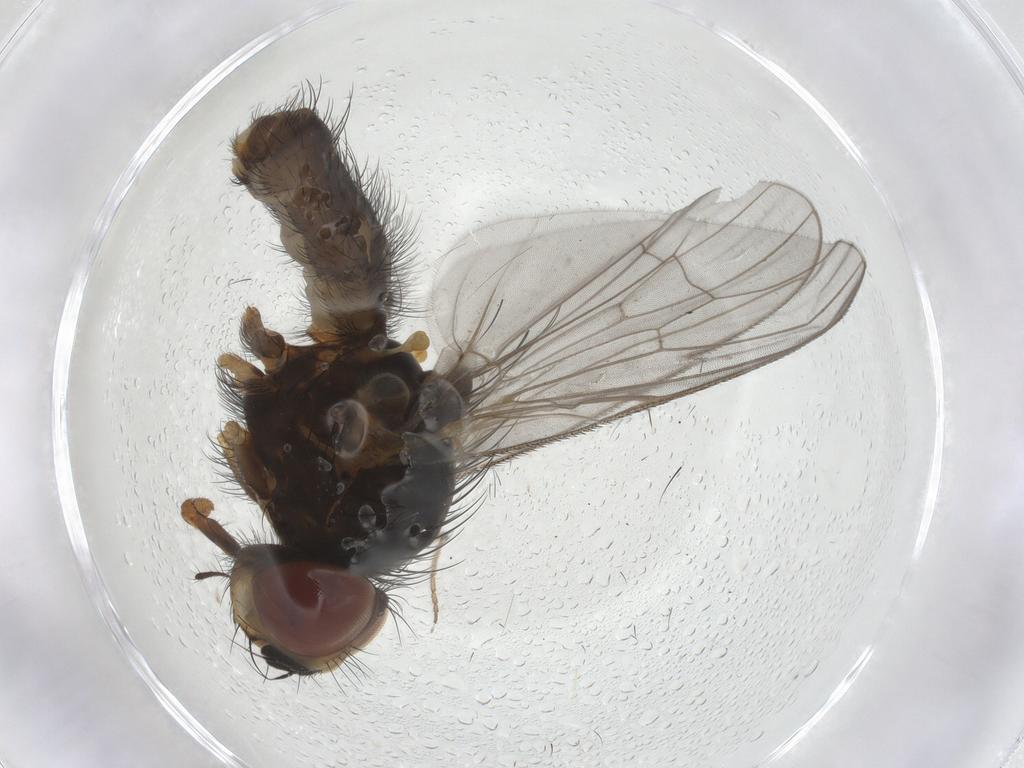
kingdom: Animalia
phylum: Arthropoda
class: Insecta
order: Diptera
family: Anthomyiidae
